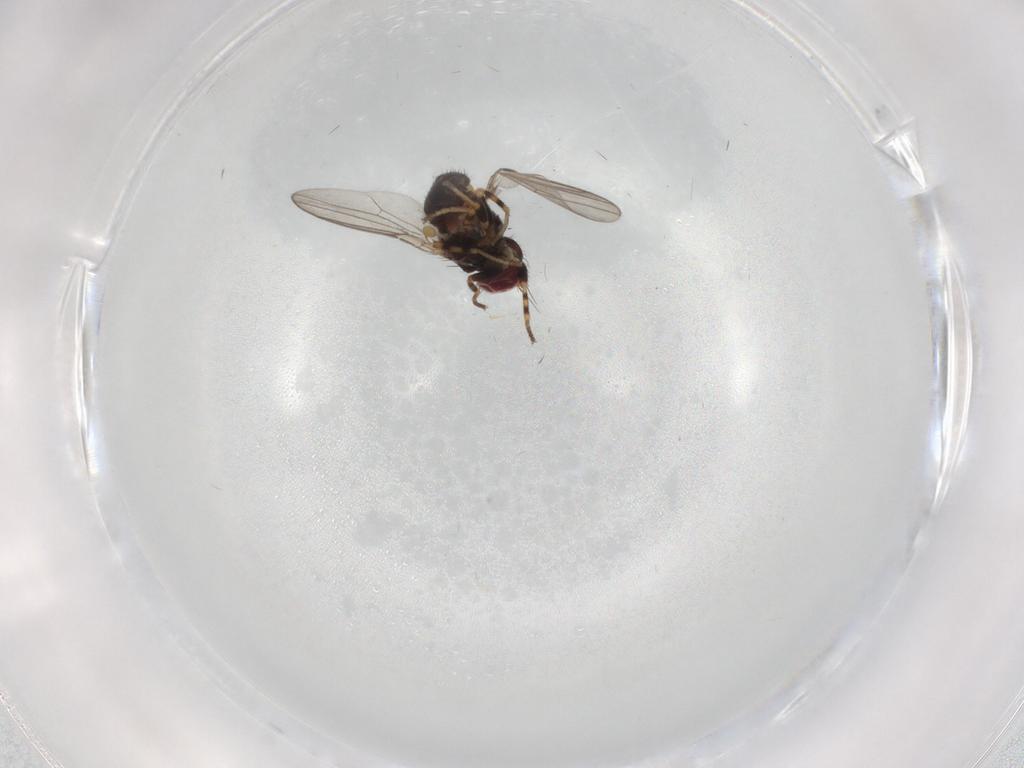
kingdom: Animalia
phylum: Arthropoda
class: Insecta
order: Diptera
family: Chloropidae
